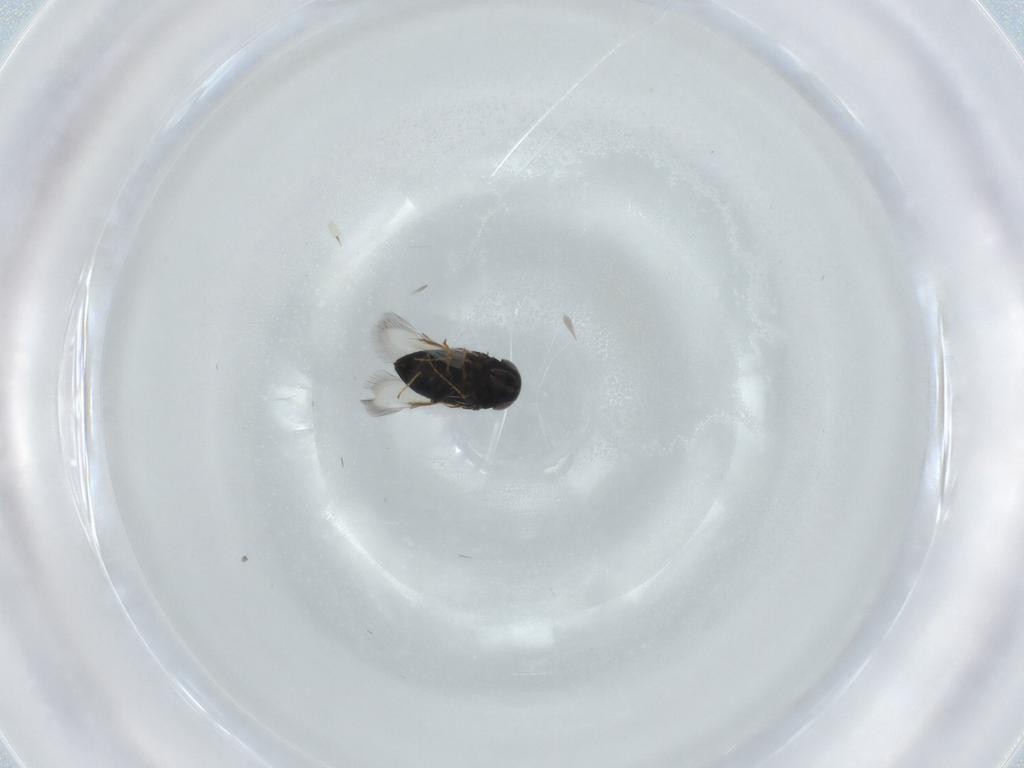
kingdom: Animalia
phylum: Arthropoda
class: Insecta
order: Hymenoptera
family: Signiphoridae
